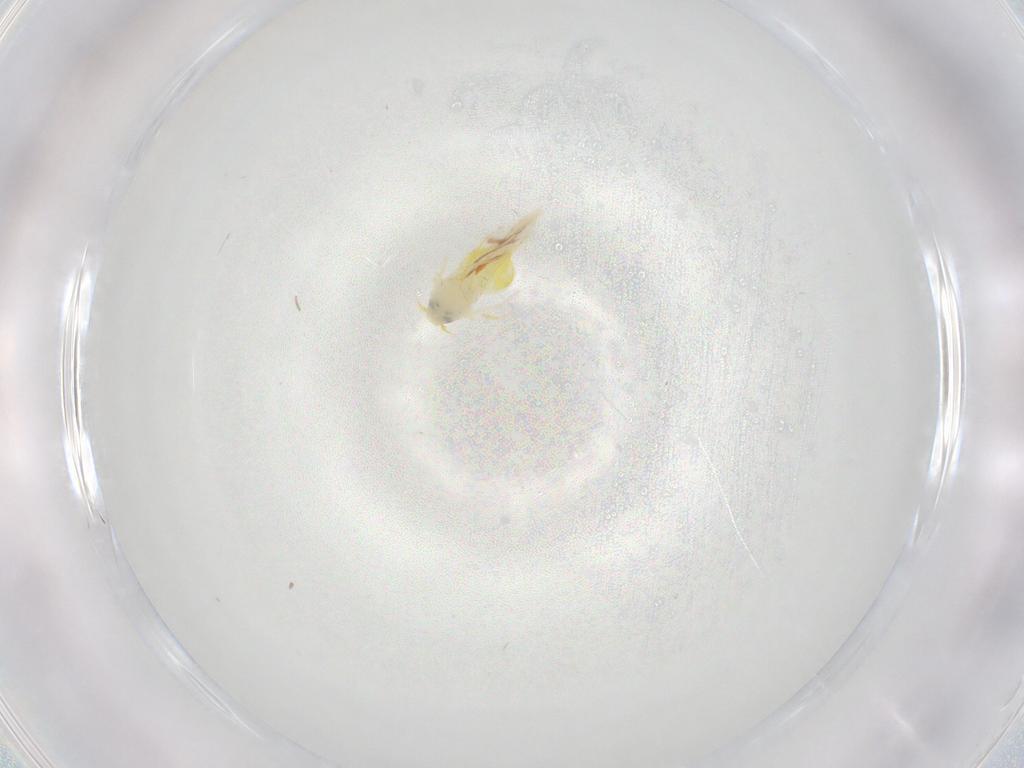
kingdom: Animalia
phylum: Arthropoda
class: Insecta
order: Hemiptera
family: Aleyrodidae
